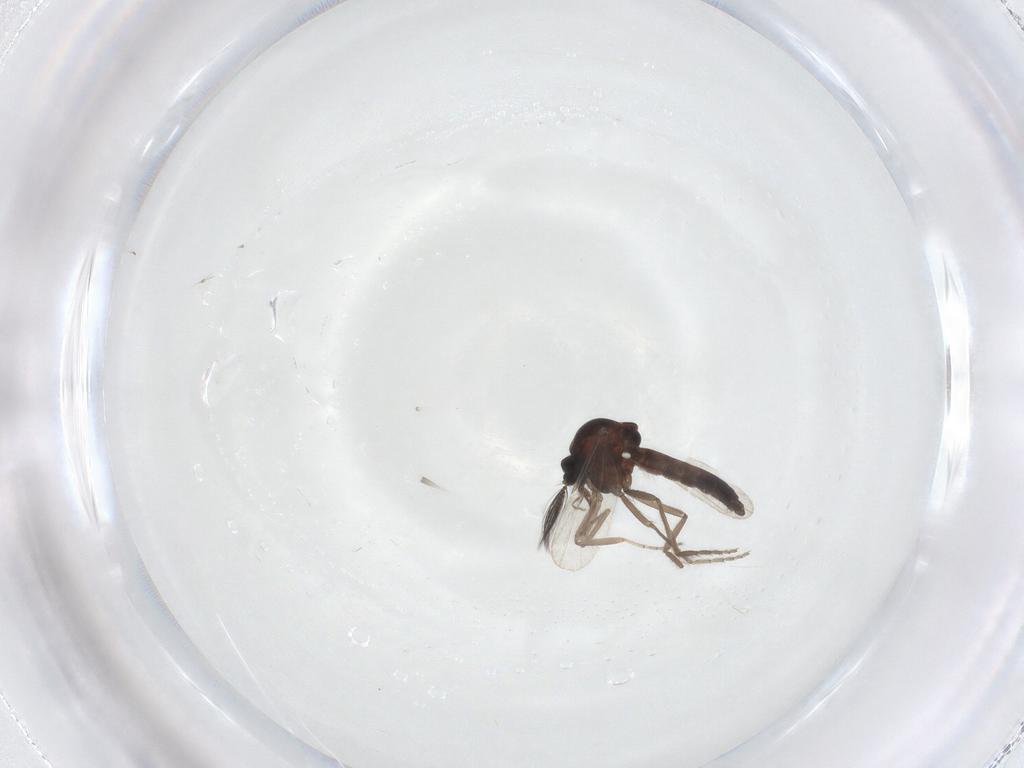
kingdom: Animalia
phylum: Arthropoda
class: Insecta
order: Diptera
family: Ceratopogonidae
